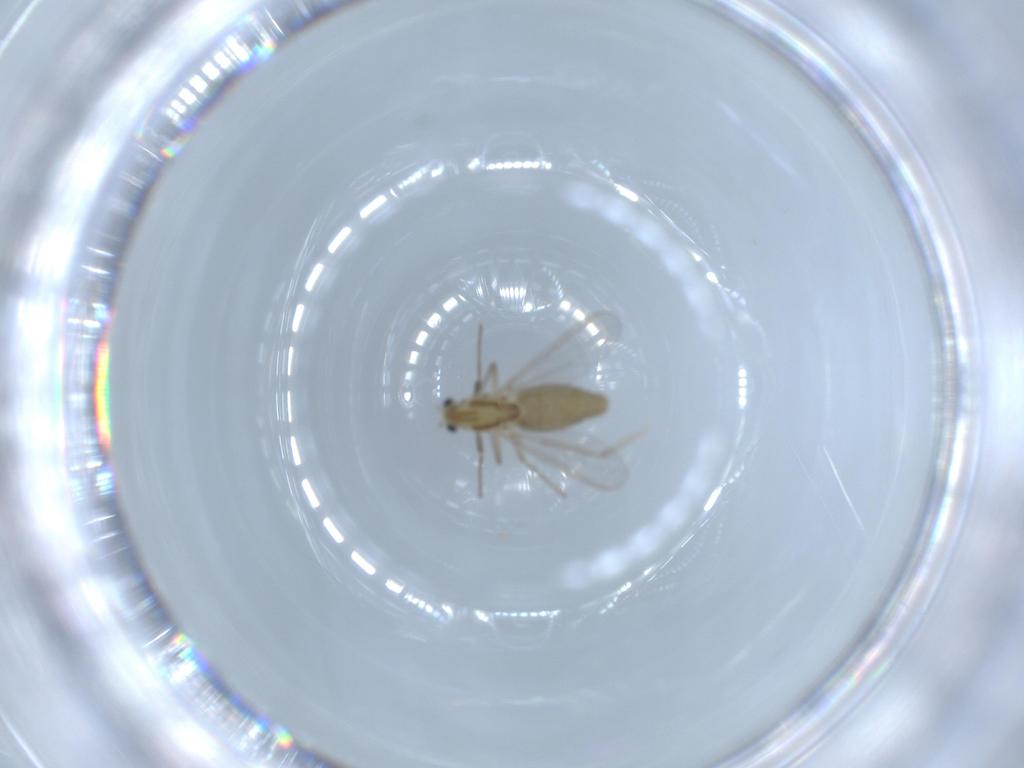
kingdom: Animalia
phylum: Arthropoda
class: Insecta
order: Diptera
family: Chironomidae
